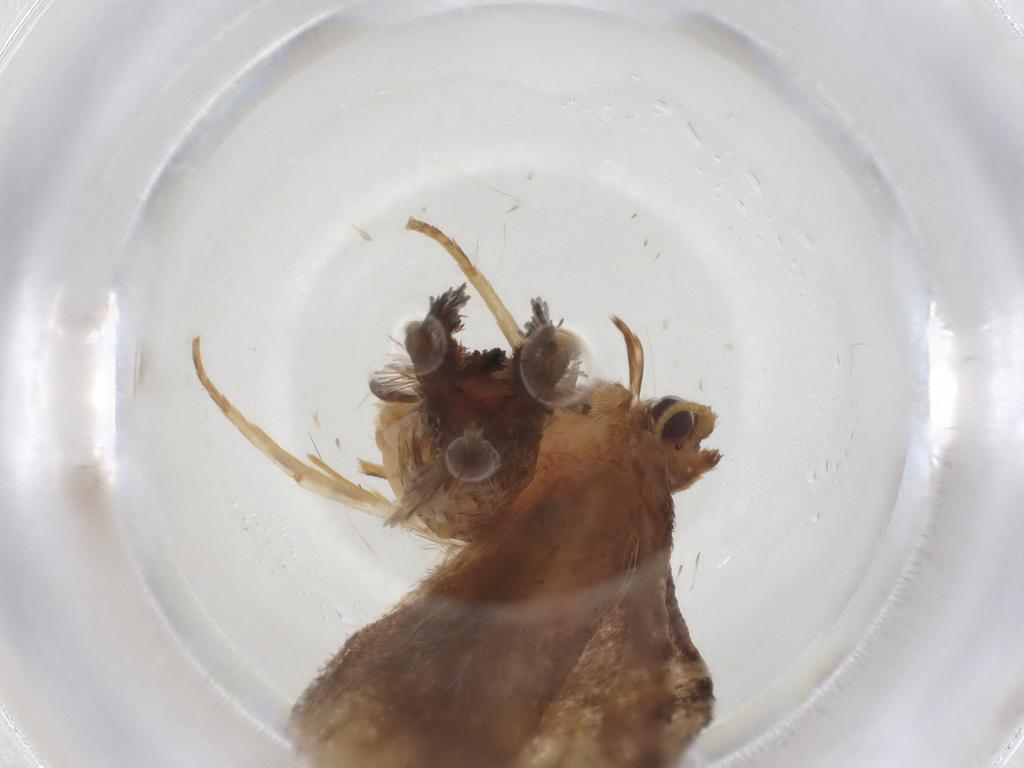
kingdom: Animalia
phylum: Arthropoda
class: Insecta
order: Lepidoptera
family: Tortricidae
